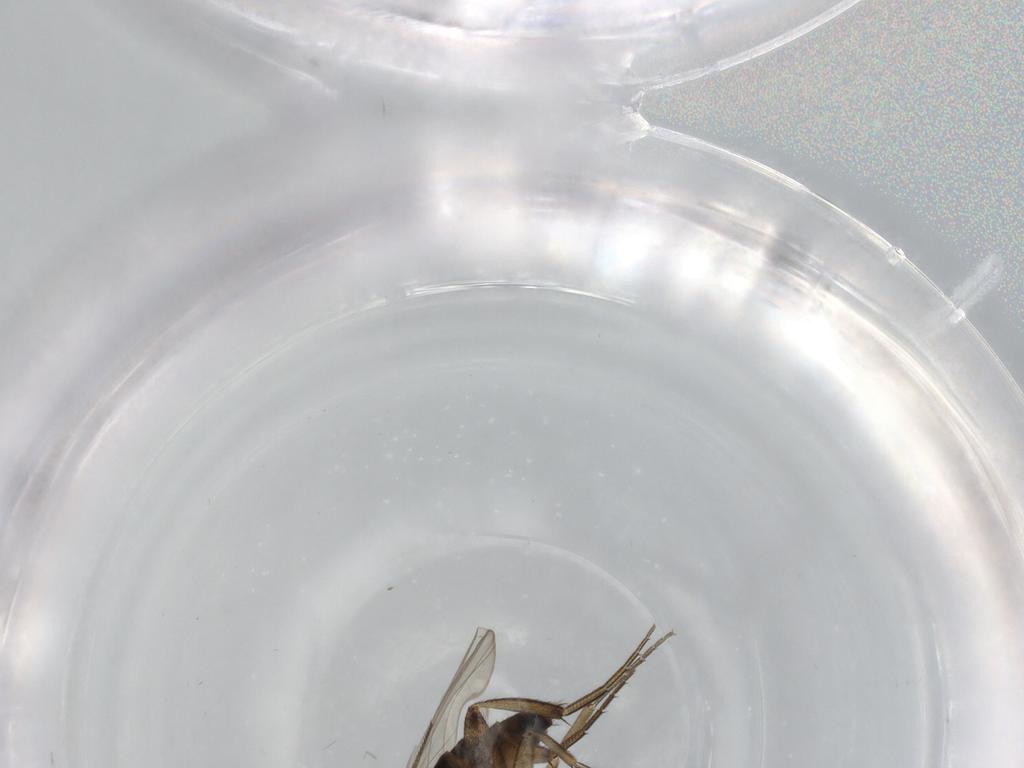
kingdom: Animalia
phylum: Arthropoda
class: Insecta
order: Diptera
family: Phoridae
